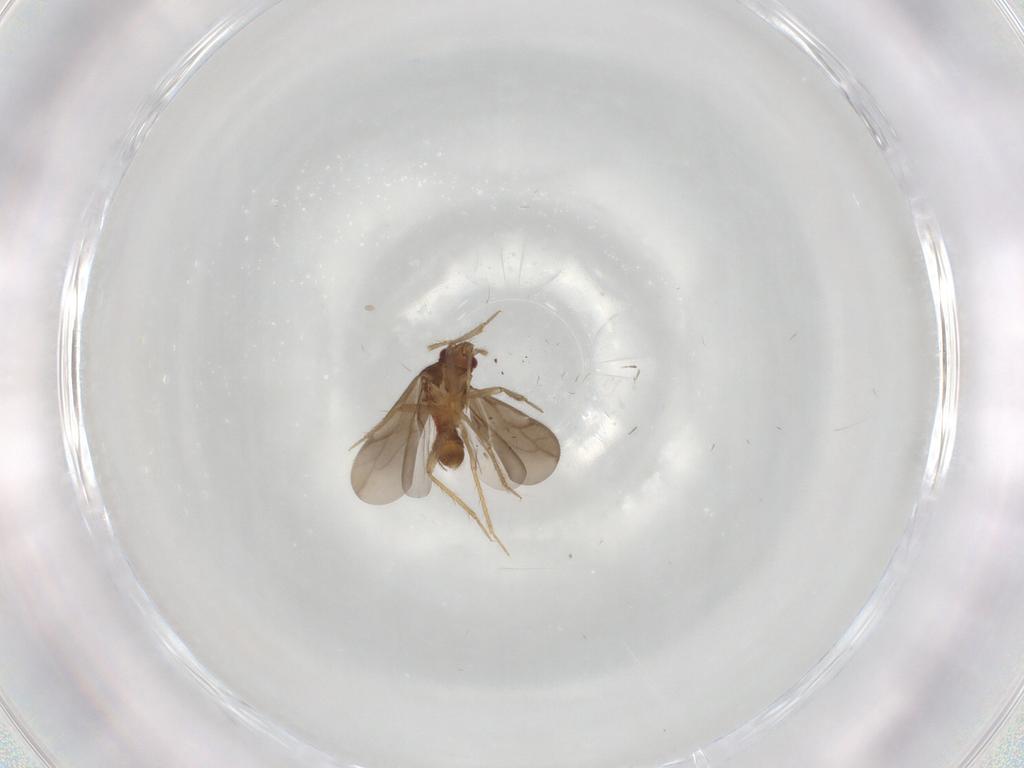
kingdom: Animalia
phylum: Arthropoda
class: Insecta
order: Hemiptera
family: Ceratocombidae
